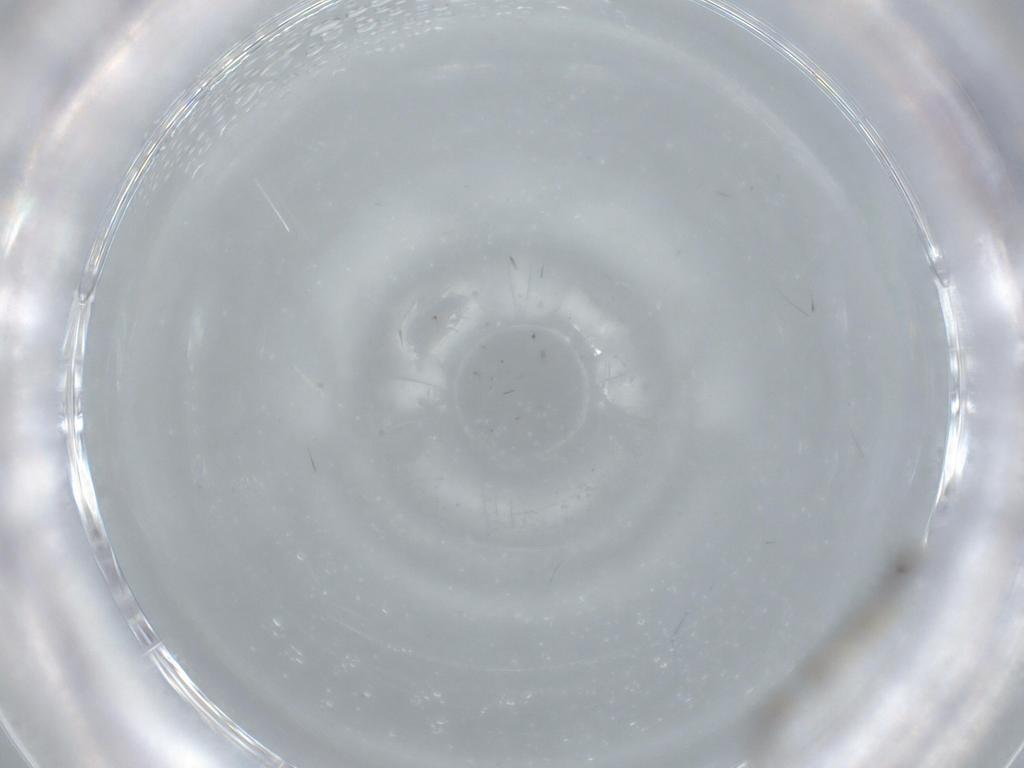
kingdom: Animalia
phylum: Arthropoda
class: Insecta
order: Diptera
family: Ceratopogonidae
